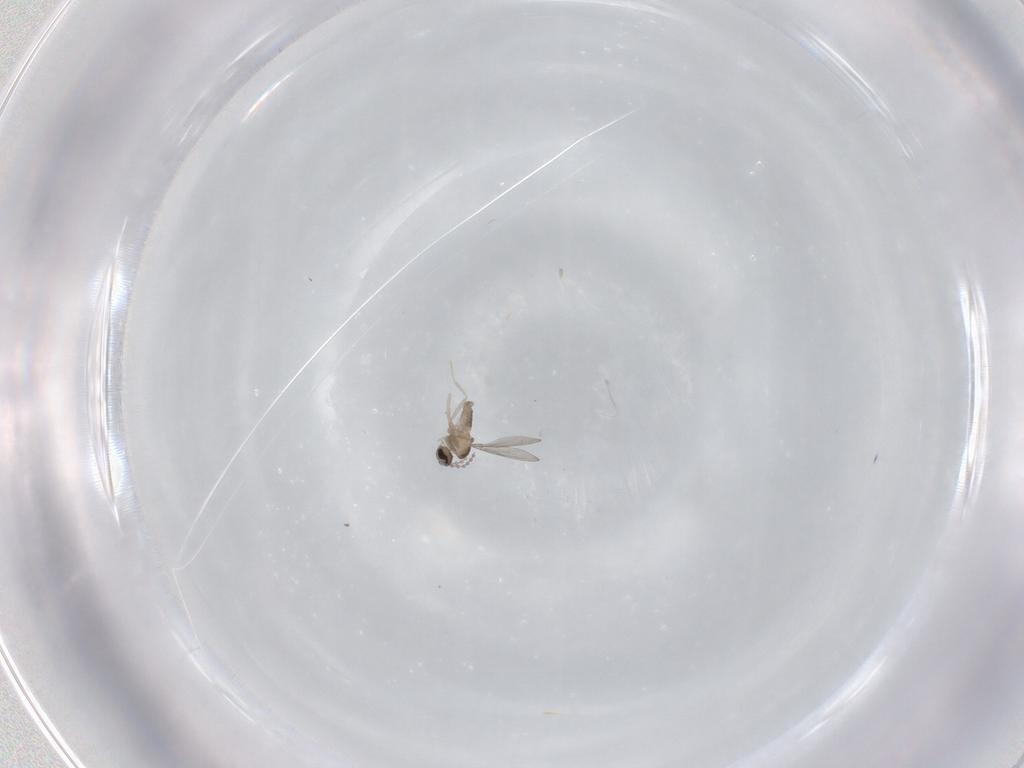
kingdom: Animalia
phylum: Arthropoda
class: Insecta
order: Diptera
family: Cecidomyiidae
